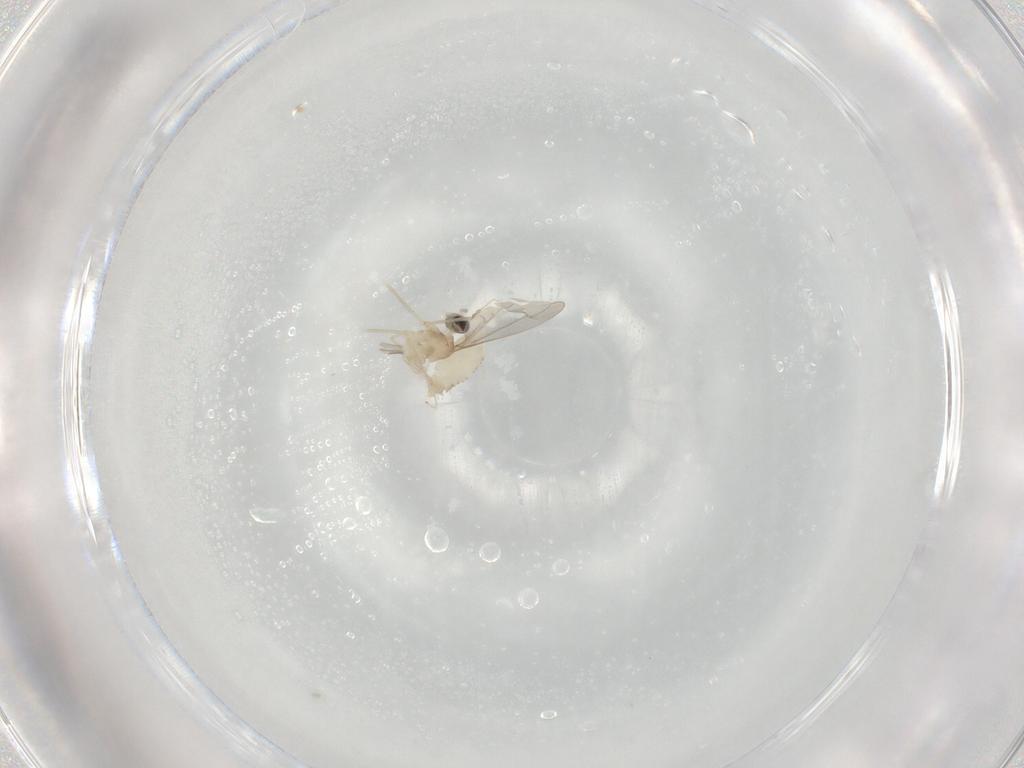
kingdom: Animalia
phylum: Arthropoda
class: Insecta
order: Diptera
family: Cecidomyiidae
